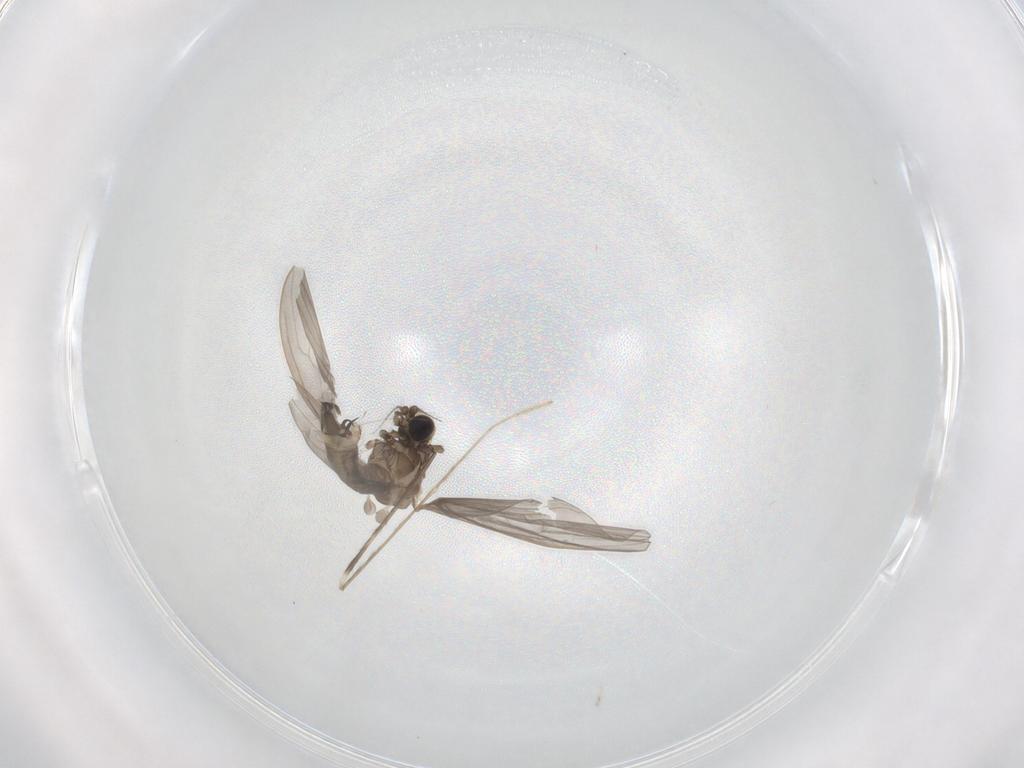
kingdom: Animalia
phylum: Arthropoda
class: Insecta
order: Diptera
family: Limoniidae
